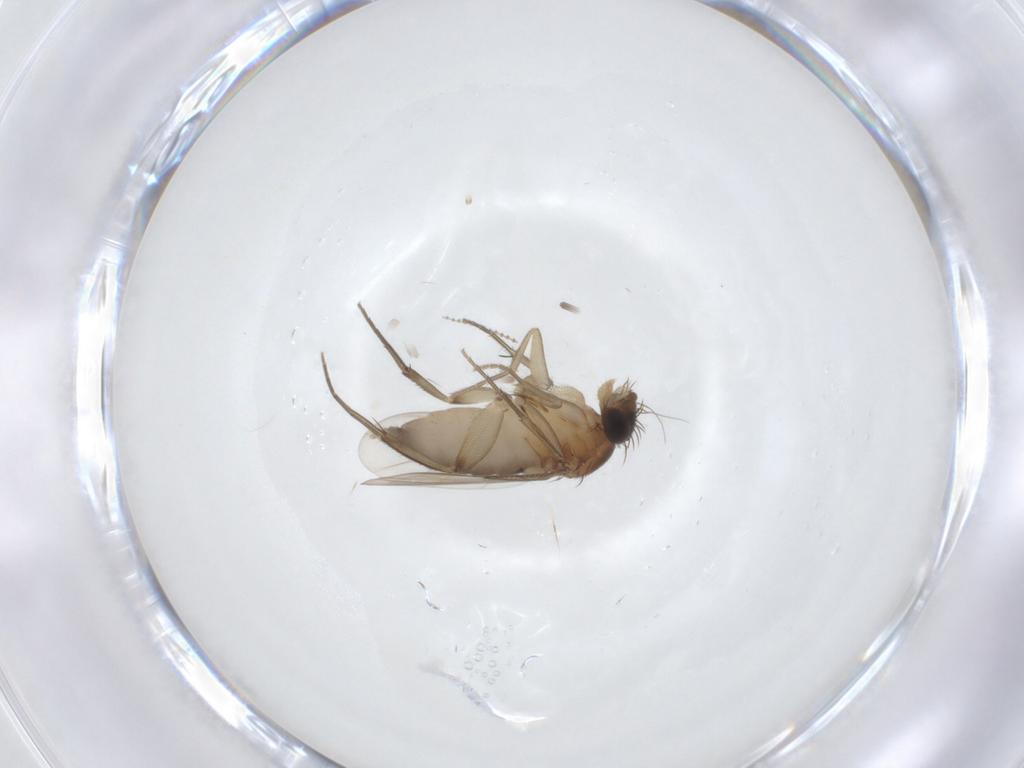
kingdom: Animalia
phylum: Arthropoda
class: Insecta
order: Diptera
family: Phoridae
